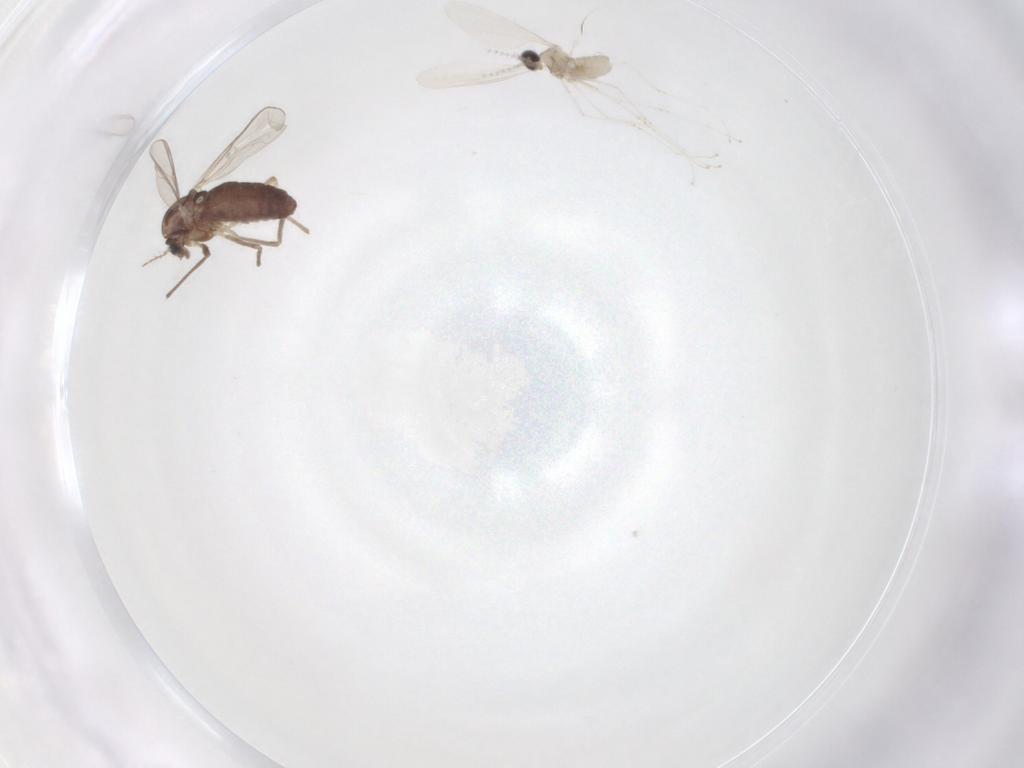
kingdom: Animalia
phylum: Arthropoda
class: Insecta
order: Diptera
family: Chironomidae
